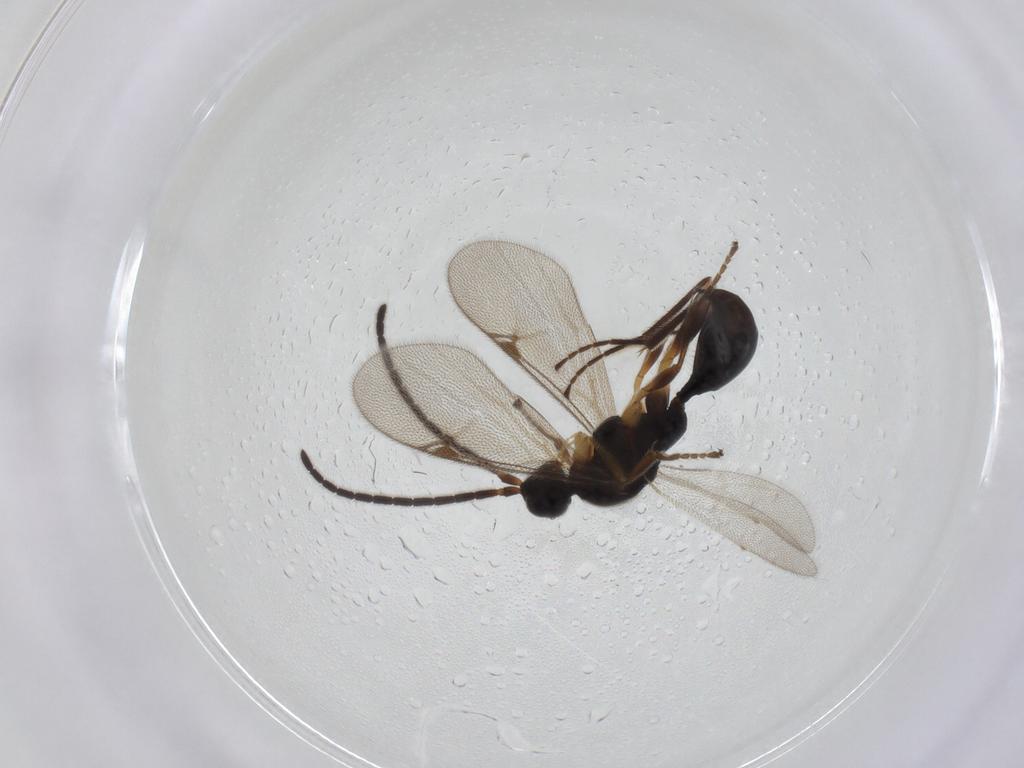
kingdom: Animalia
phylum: Arthropoda
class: Insecta
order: Hymenoptera
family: Proctotrupidae
